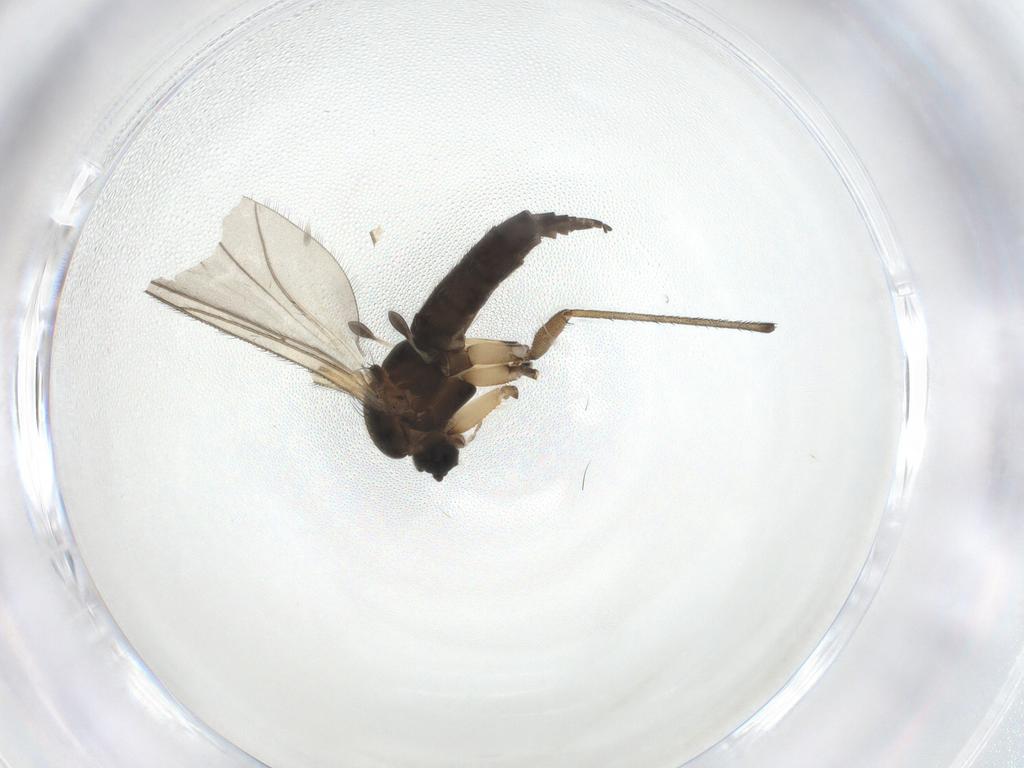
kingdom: Animalia
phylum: Arthropoda
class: Insecta
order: Diptera
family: Sciaridae
